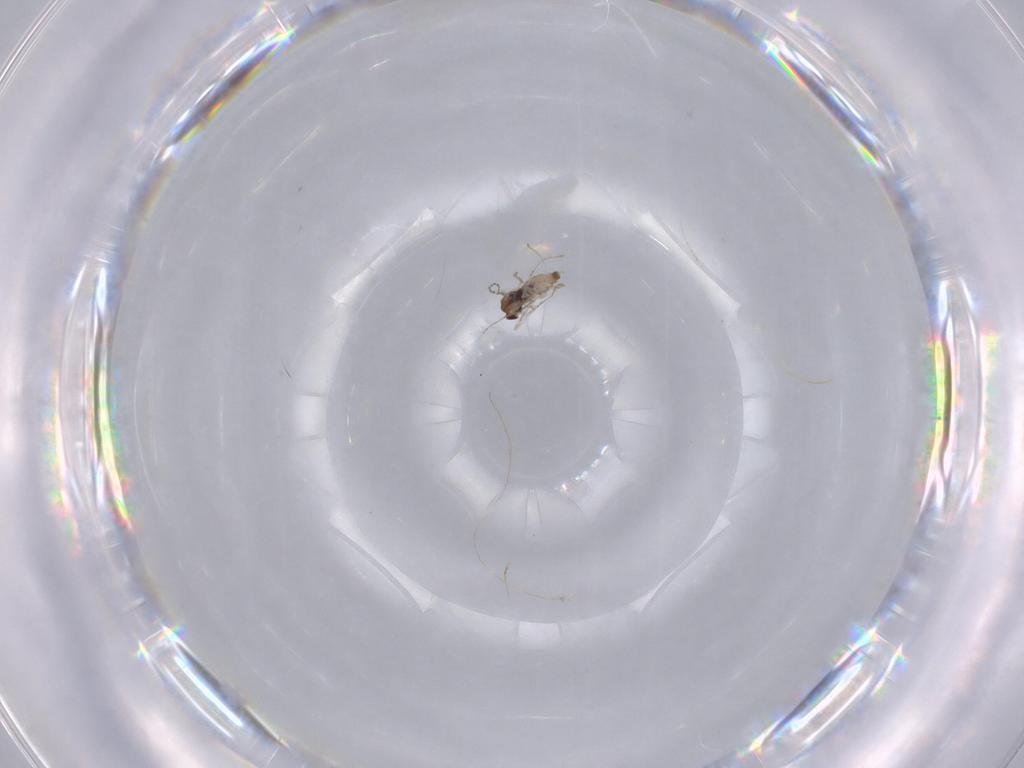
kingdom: Animalia
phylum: Arthropoda
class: Insecta
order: Diptera
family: Sciaridae
